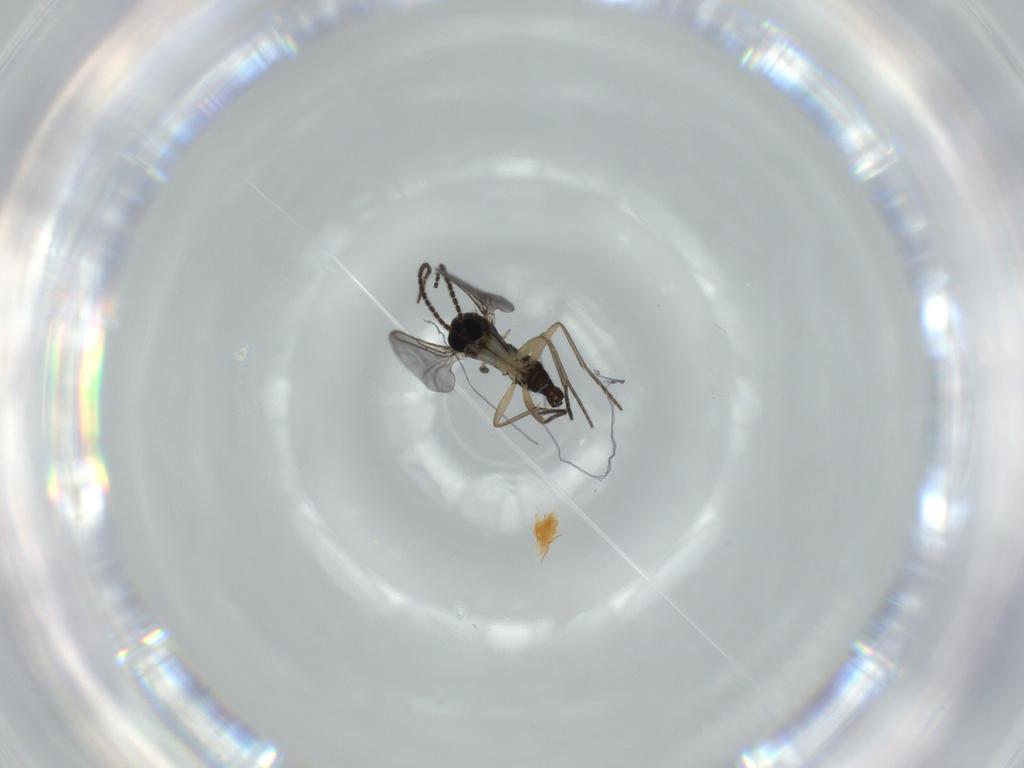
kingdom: Animalia
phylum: Arthropoda
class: Insecta
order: Diptera
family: Sciaridae
